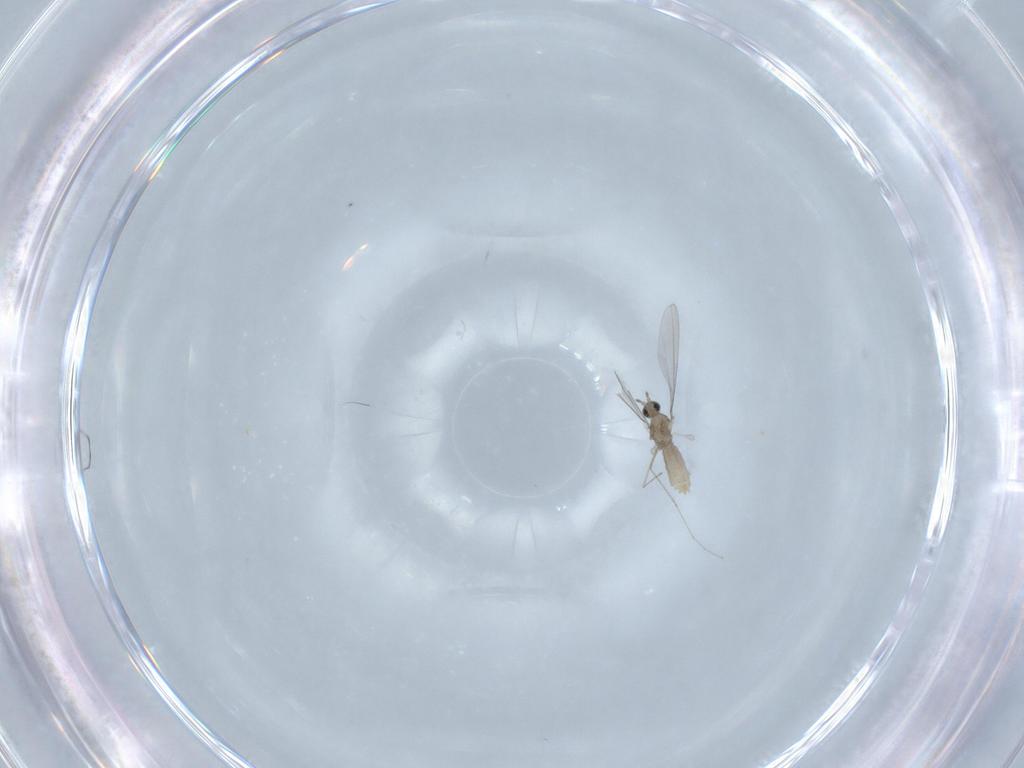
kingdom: Animalia
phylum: Arthropoda
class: Insecta
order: Diptera
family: Chironomidae
